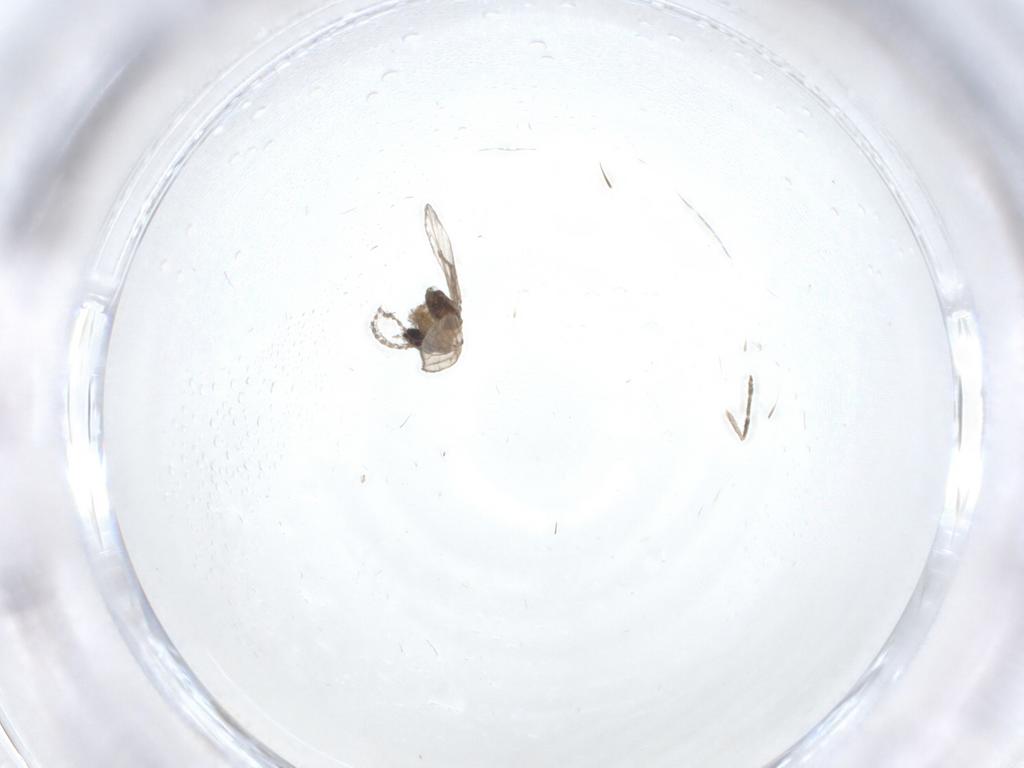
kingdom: Animalia
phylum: Arthropoda
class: Insecta
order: Diptera
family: Psychodidae
